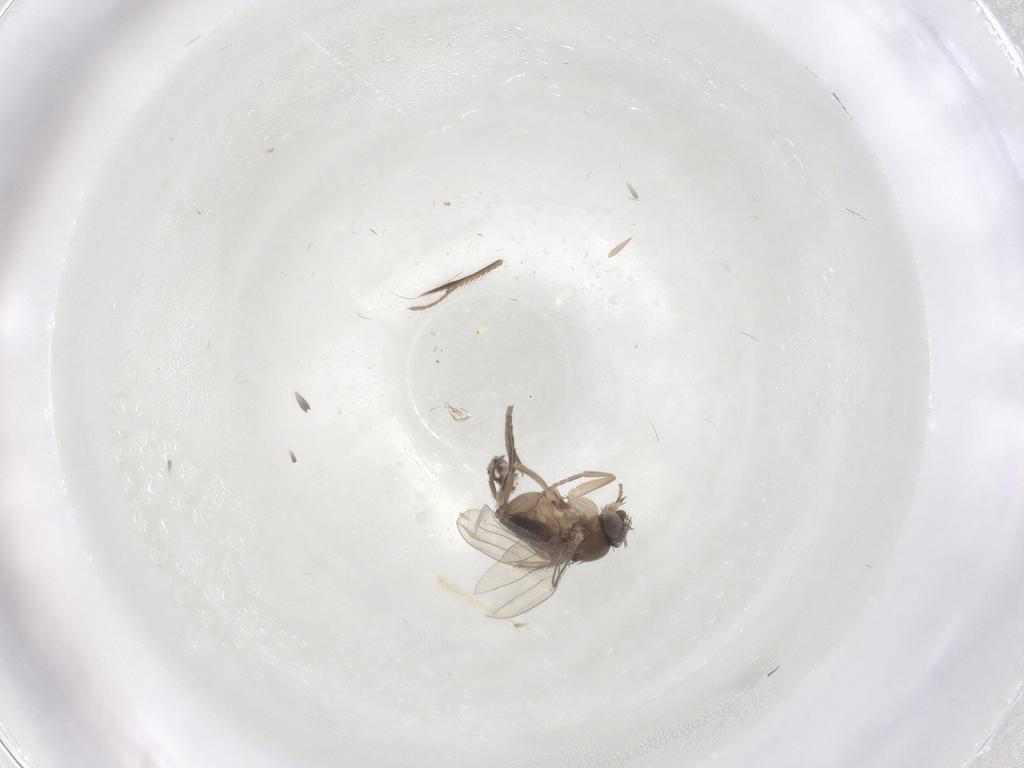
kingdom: Animalia
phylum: Arthropoda
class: Insecta
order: Diptera
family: Phoridae
